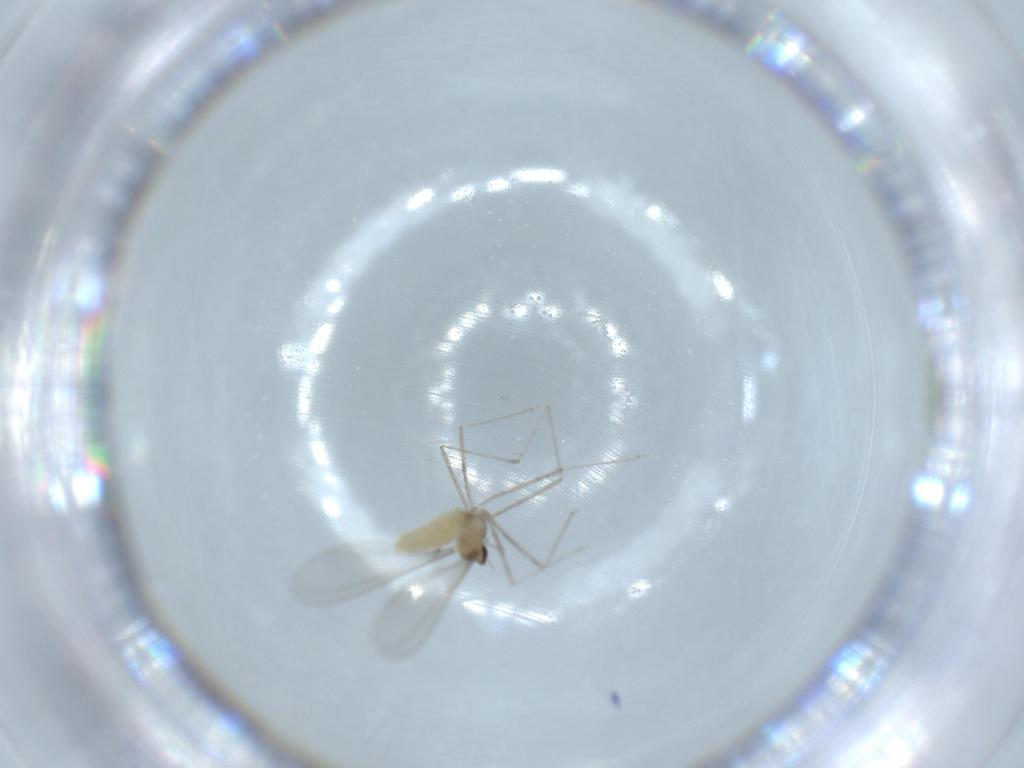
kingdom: Animalia
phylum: Arthropoda
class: Insecta
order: Diptera
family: Cecidomyiidae
